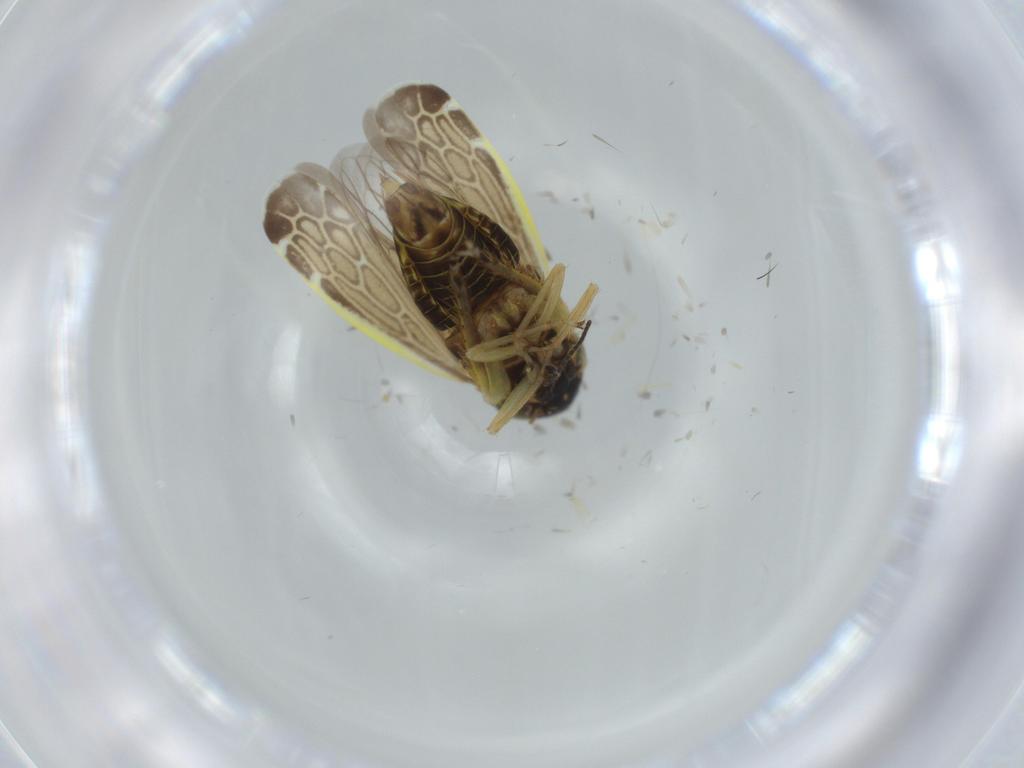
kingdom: Animalia
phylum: Arthropoda
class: Insecta
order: Hemiptera
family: Cicadellidae
